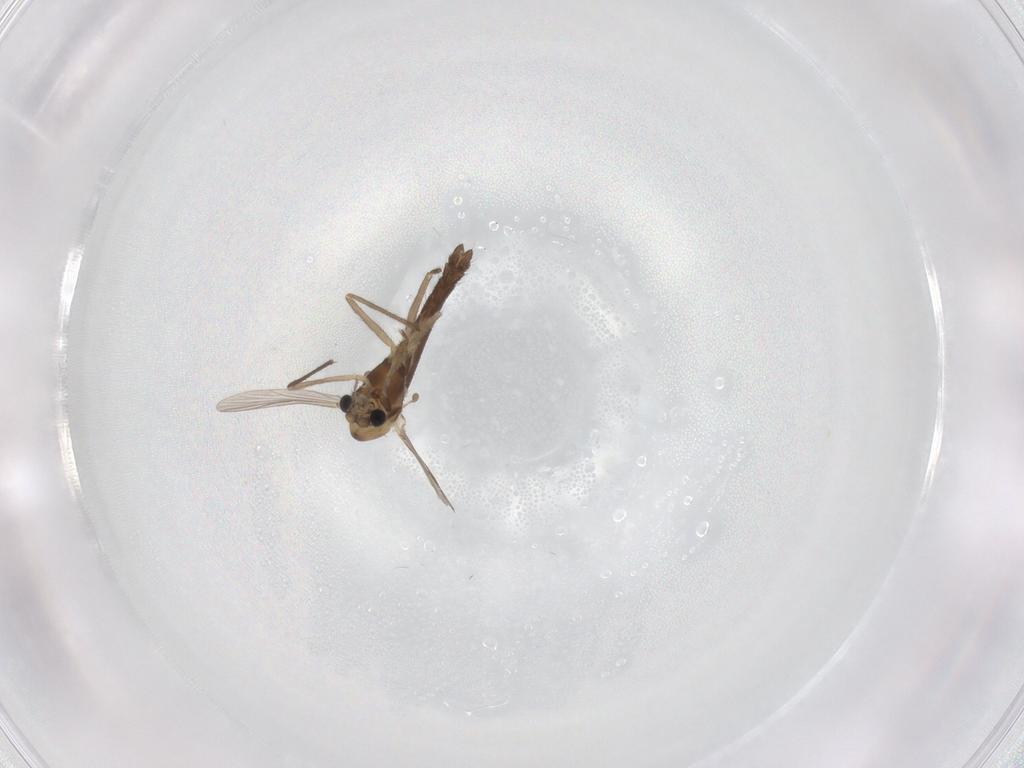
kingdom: Animalia
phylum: Arthropoda
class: Insecta
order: Diptera
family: Chironomidae
